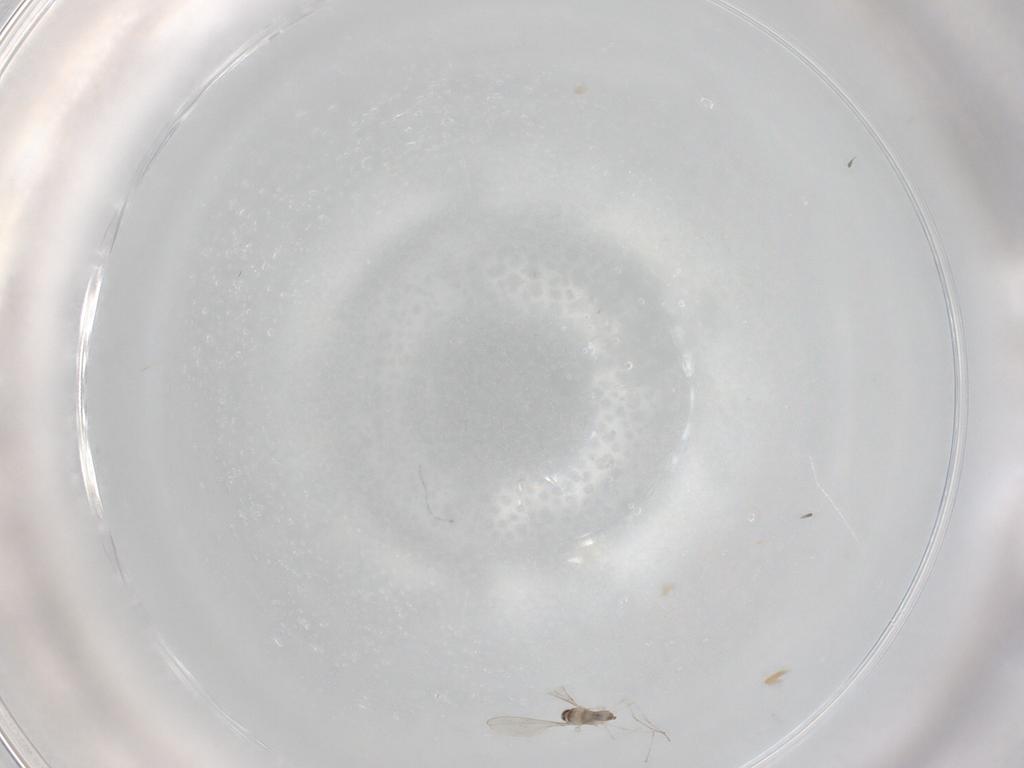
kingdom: Animalia
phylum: Arthropoda
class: Insecta
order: Diptera
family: Cecidomyiidae
